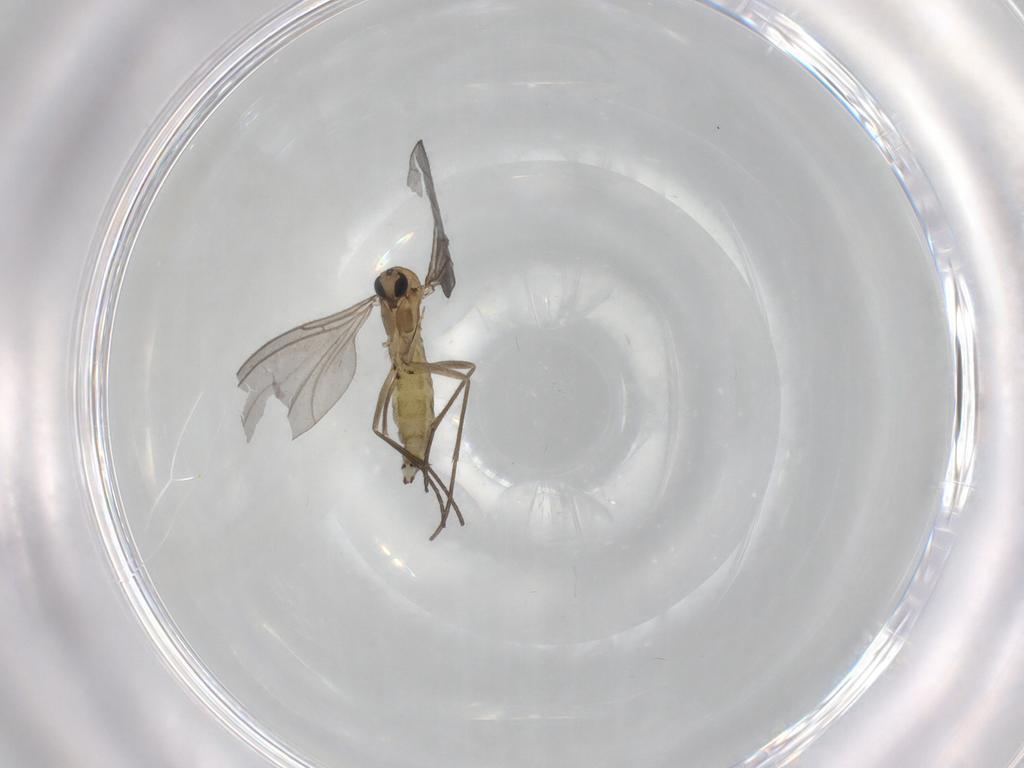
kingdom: Animalia
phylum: Arthropoda
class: Insecta
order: Diptera
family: Sciaridae
